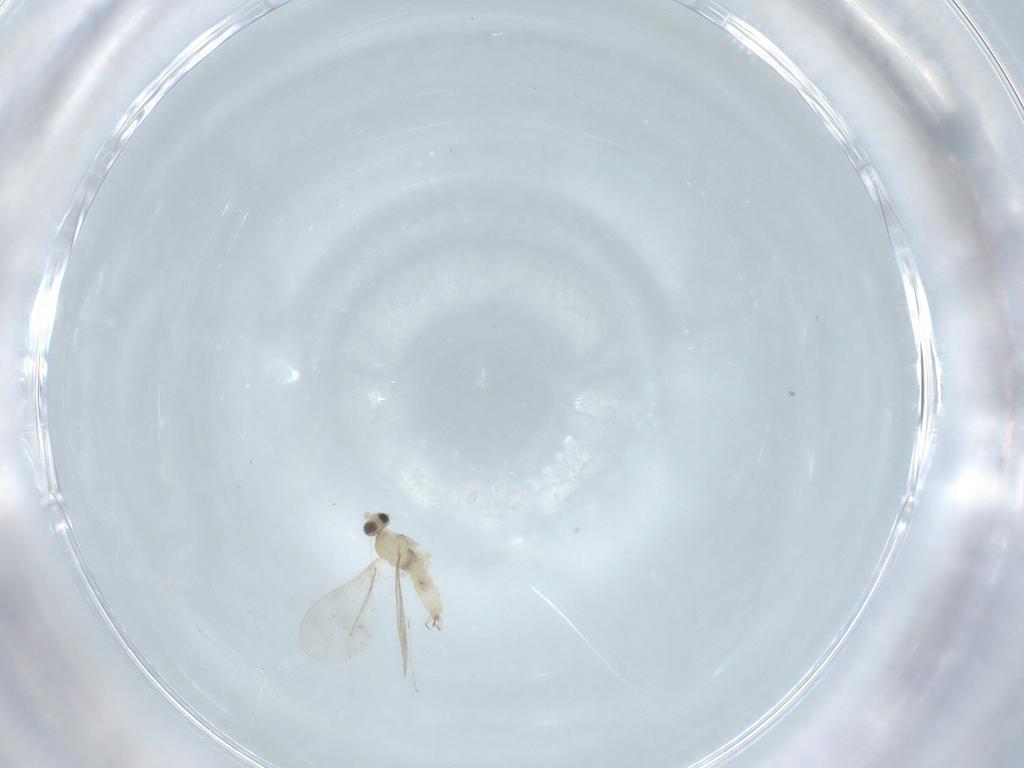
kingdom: Animalia
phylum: Arthropoda
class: Insecta
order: Diptera
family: Cecidomyiidae
